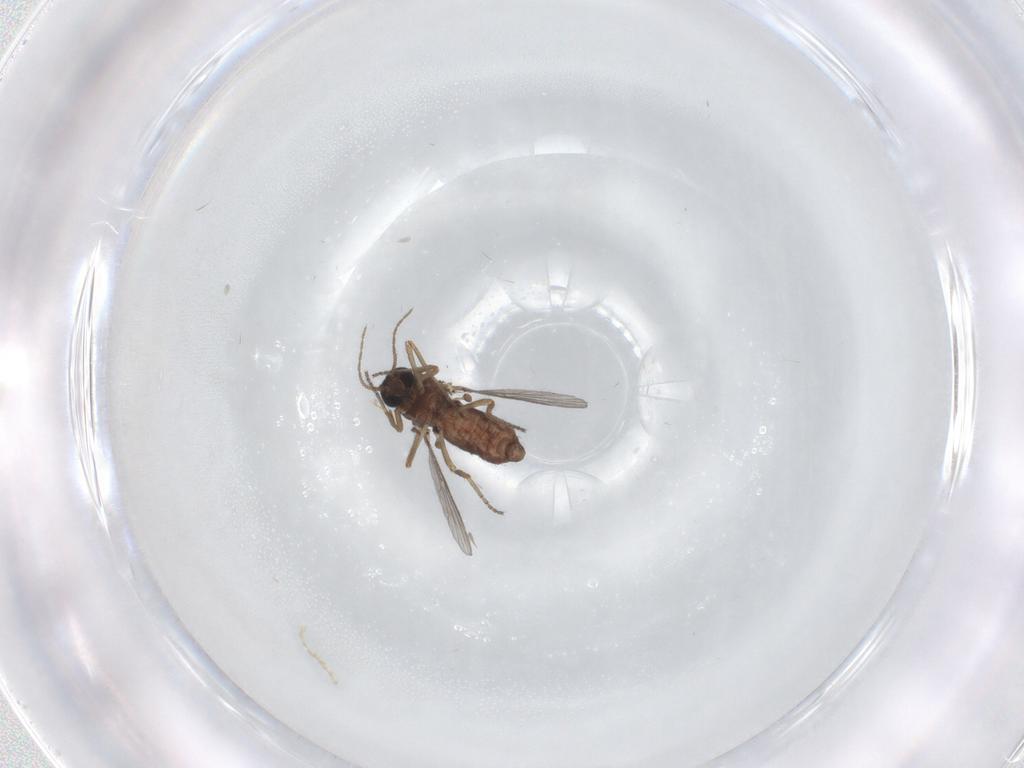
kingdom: Animalia
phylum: Arthropoda
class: Insecta
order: Diptera
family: Ceratopogonidae
